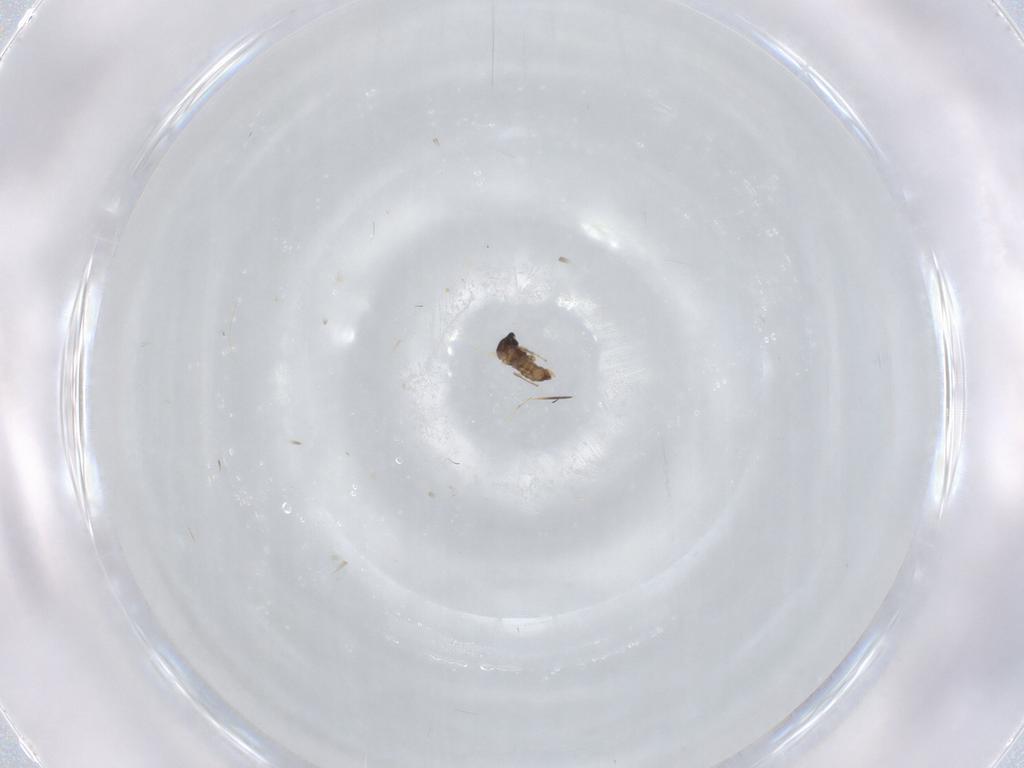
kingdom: Animalia
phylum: Arthropoda
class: Insecta
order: Diptera
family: Cecidomyiidae
